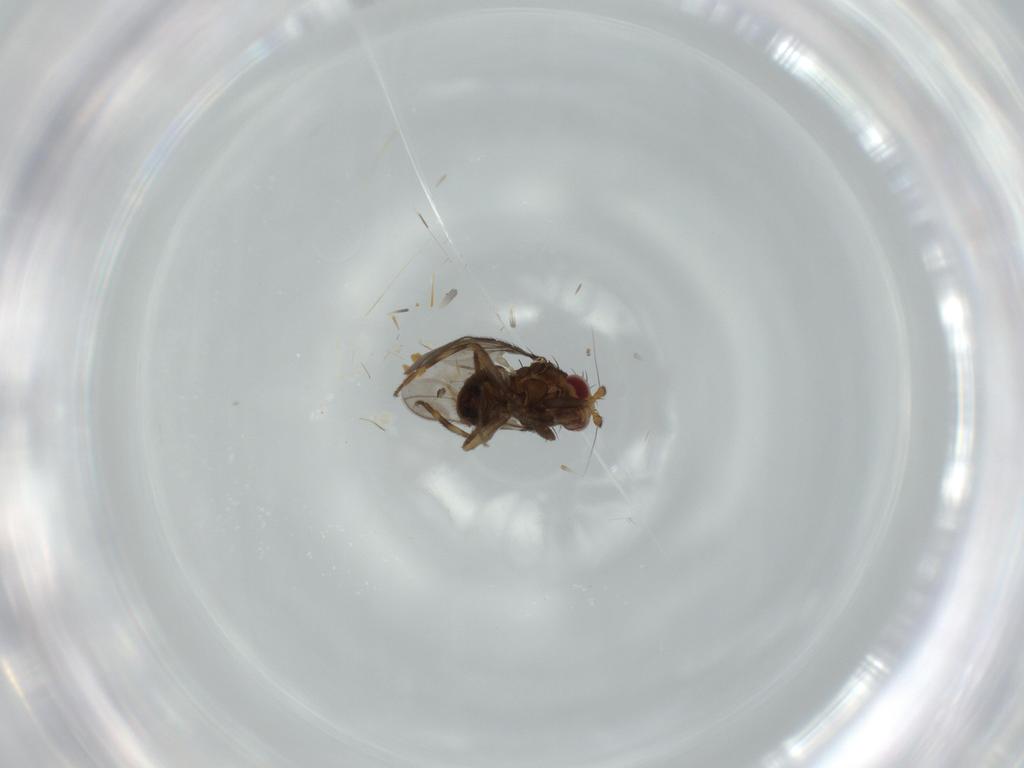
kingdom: Animalia
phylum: Arthropoda
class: Insecta
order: Diptera
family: Sphaeroceridae
